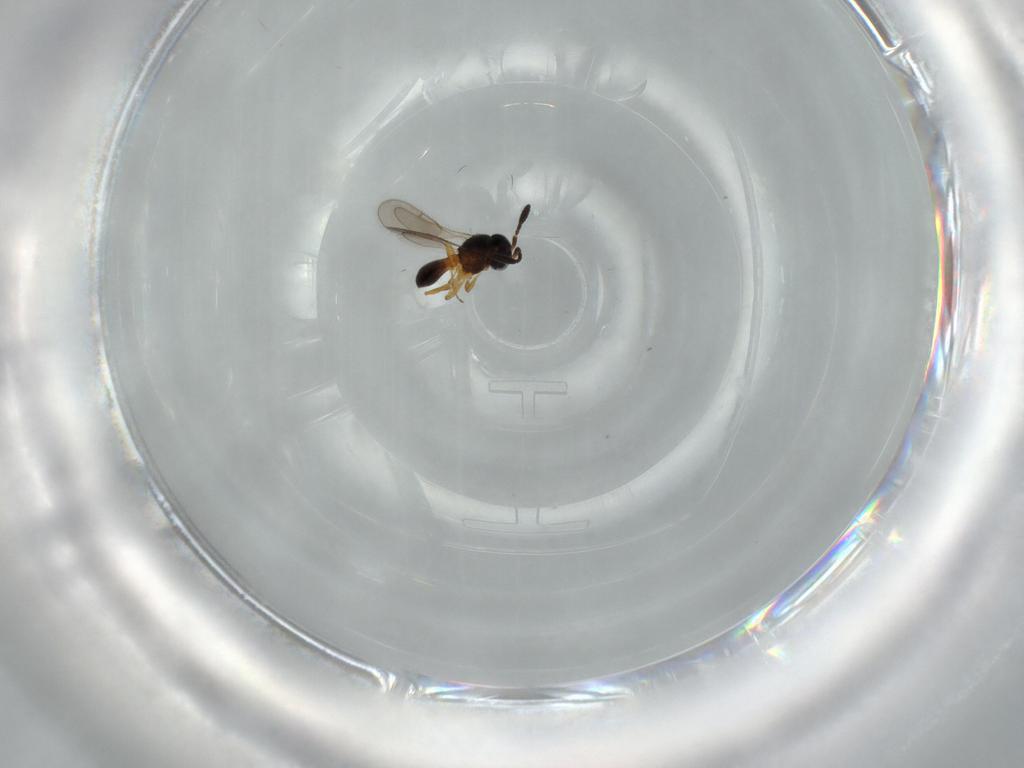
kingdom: Animalia
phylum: Arthropoda
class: Insecta
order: Hymenoptera
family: Scelionidae
